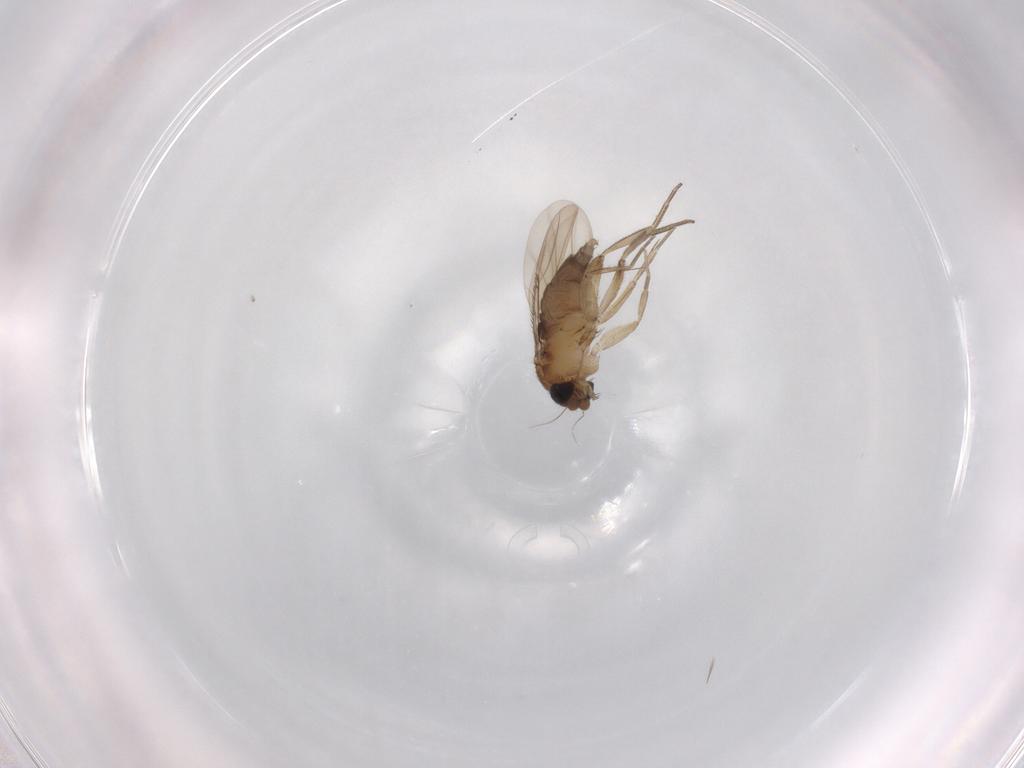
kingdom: Animalia
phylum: Arthropoda
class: Insecta
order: Diptera
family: Phoridae
